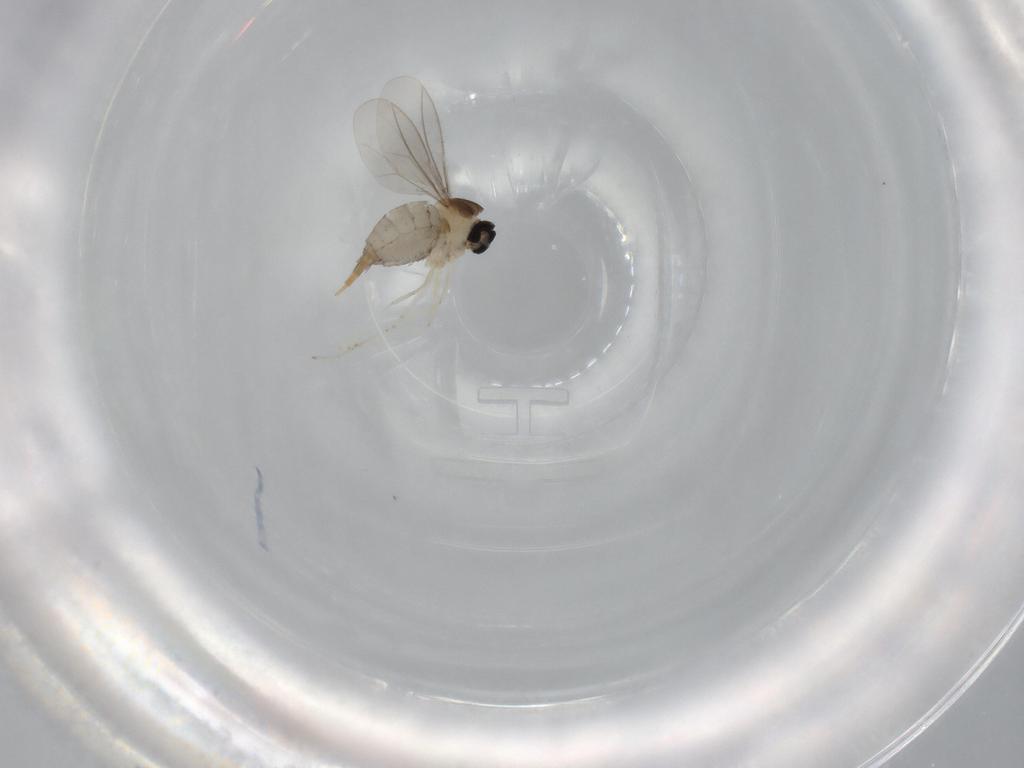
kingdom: Animalia
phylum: Arthropoda
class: Insecta
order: Diptera
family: Cecidomyiidae
